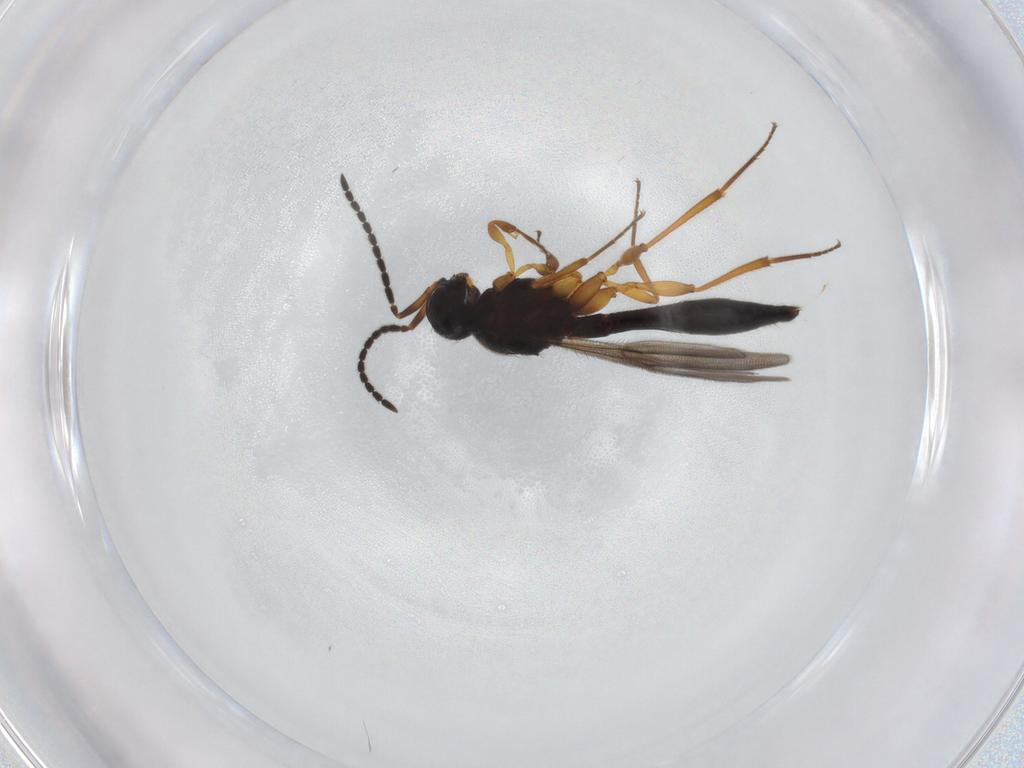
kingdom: Animalia
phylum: Arthropoda
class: Insecta
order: Hymenoptera
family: Scelionidae
